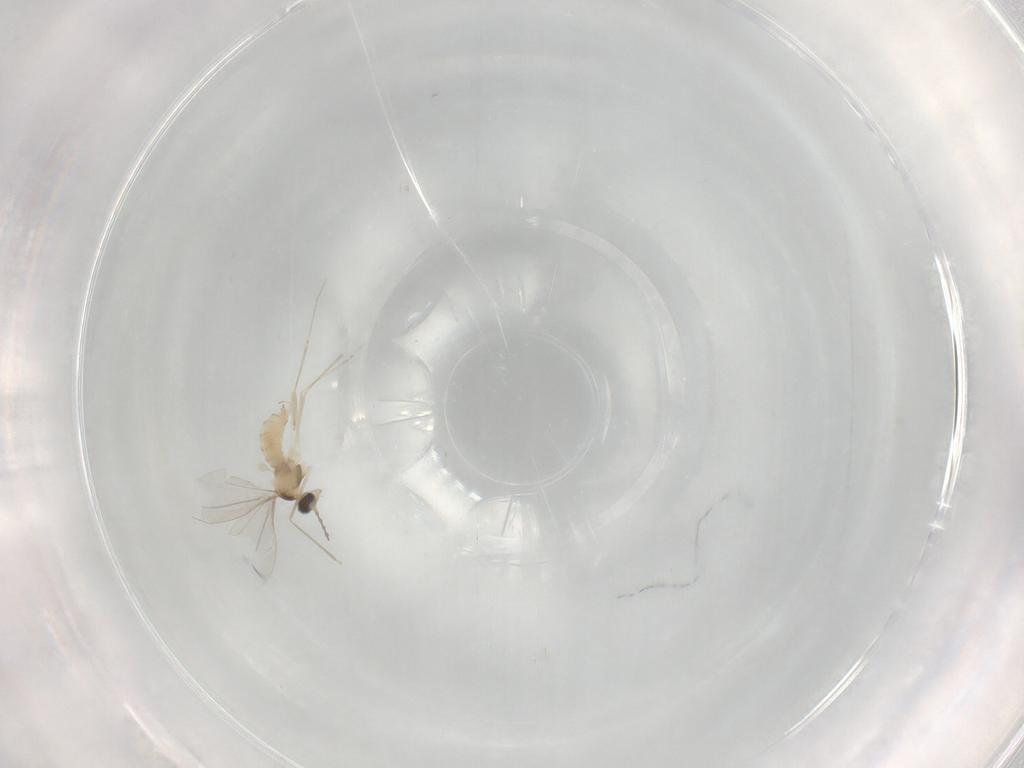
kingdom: Animalia
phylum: Arthropoda
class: Insecta
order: Diptera
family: Cecidomyiidae
